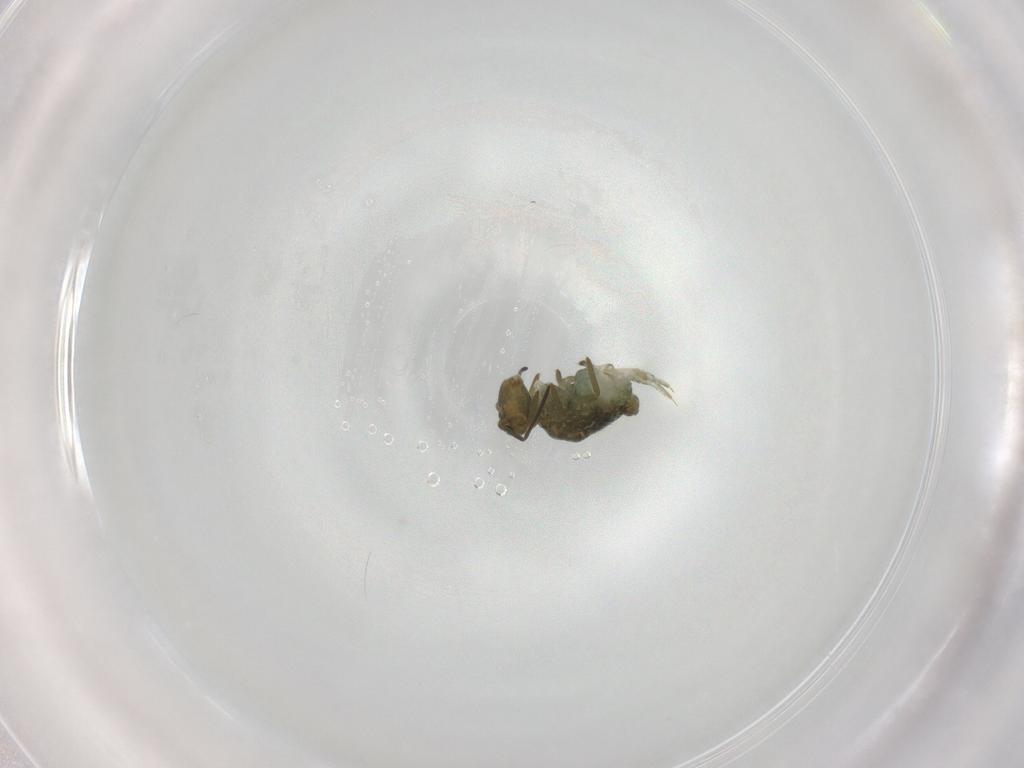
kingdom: Animalia
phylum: Arthropoda
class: Collembola
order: Symphypleona
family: Sminthuridae
